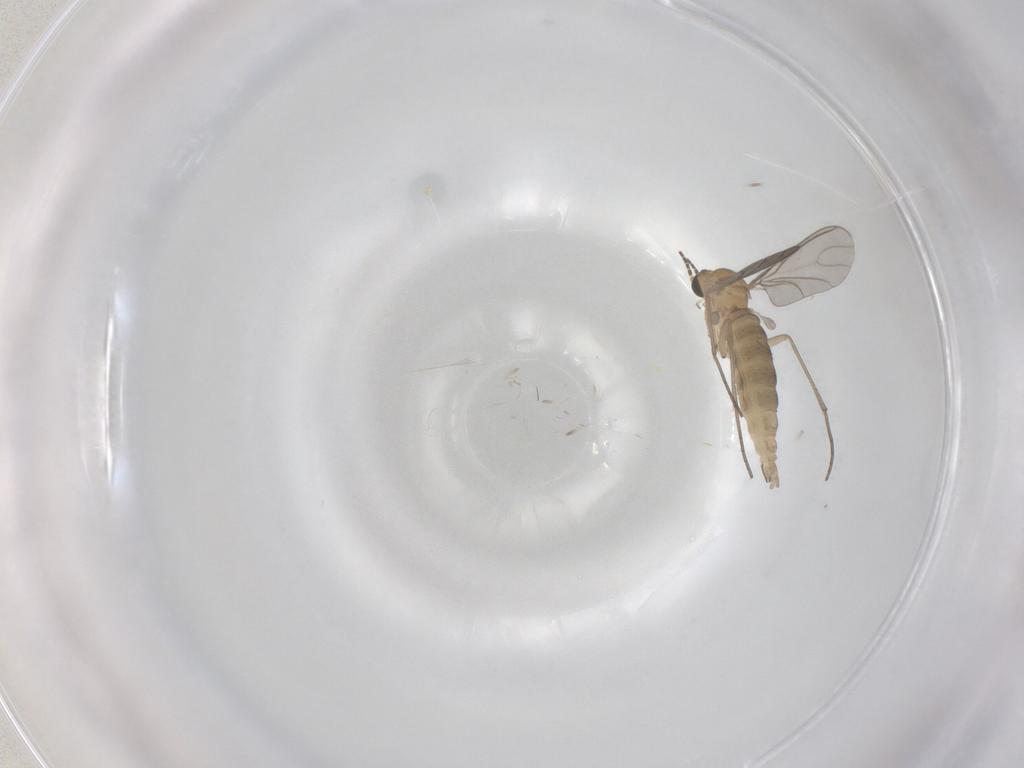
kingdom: Animalia
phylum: Arthropoda
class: Insecta
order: Diptera
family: Sciaridae
